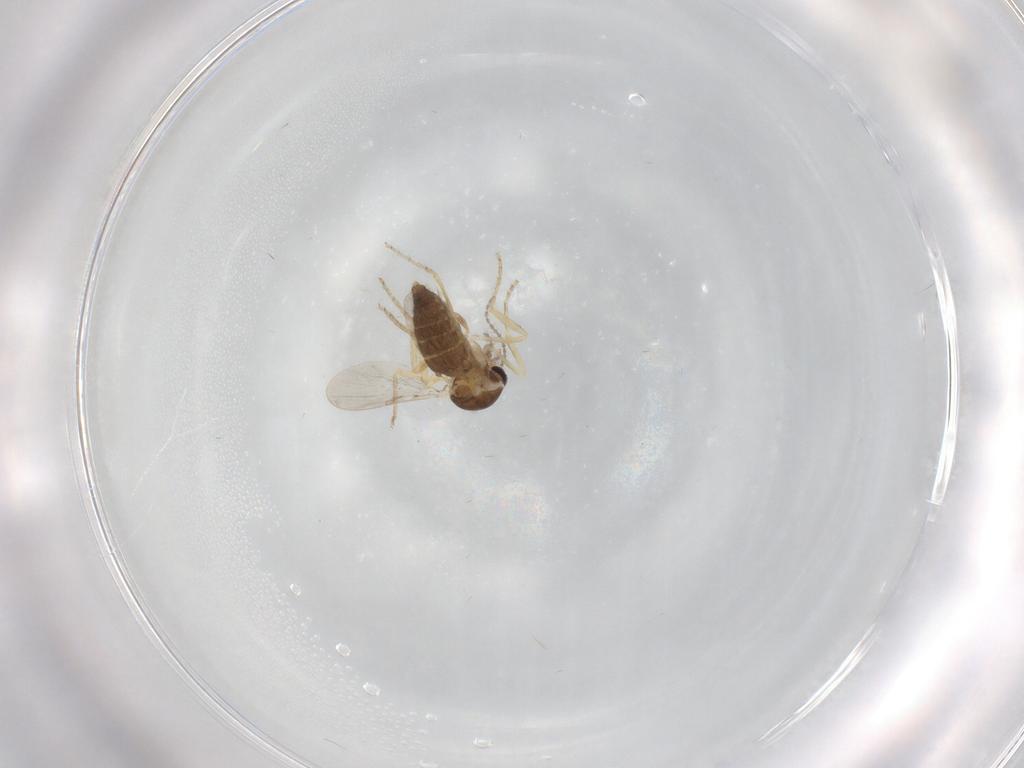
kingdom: Animalia
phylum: Arthropoda
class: Insecta
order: Diptera
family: Ceratopogonidae
